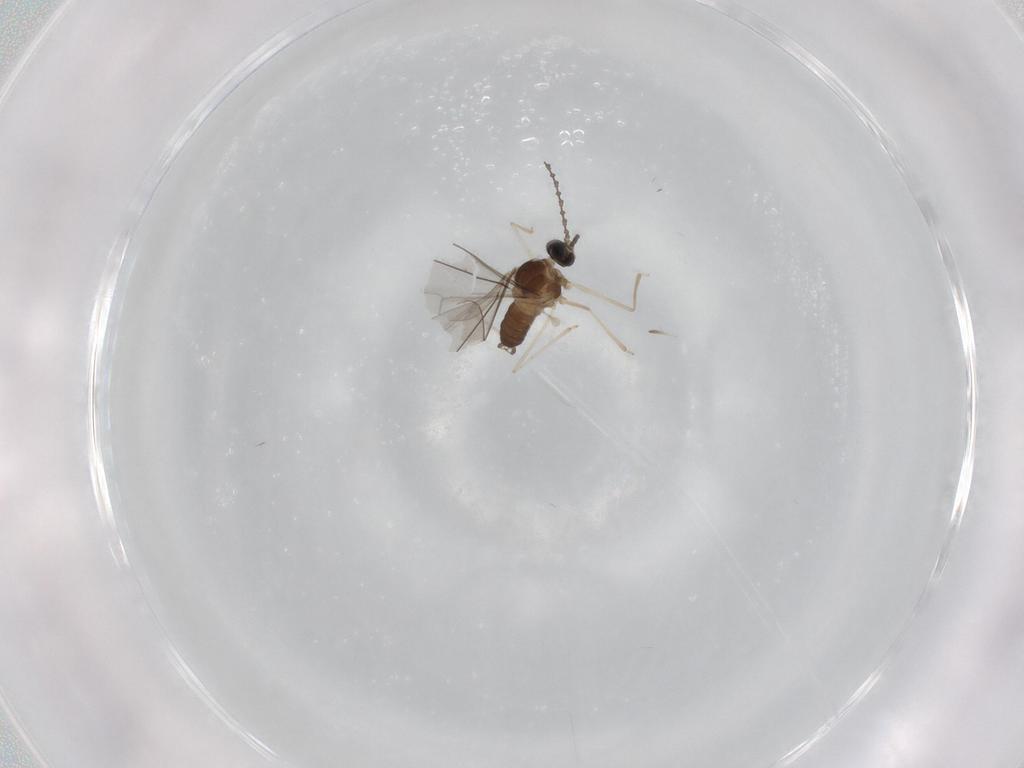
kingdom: Animalia
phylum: Arthropoda
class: Insecta
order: Diptera
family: Cecidomyiidae
